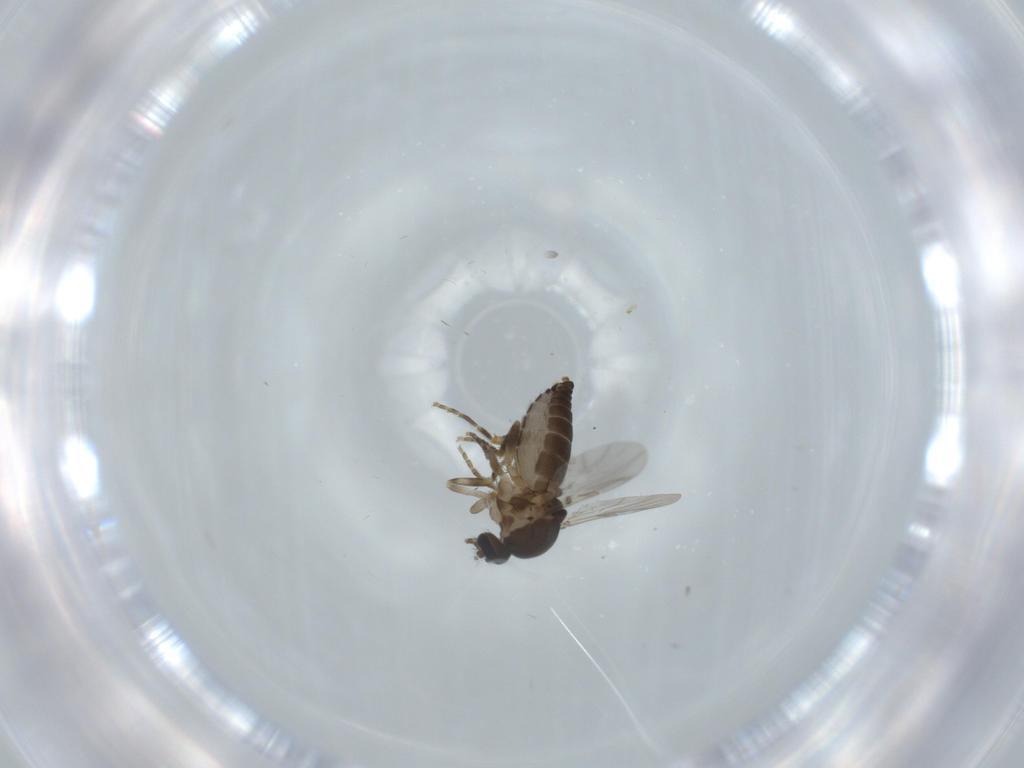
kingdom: Animalia
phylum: Arthropoda
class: Insecta
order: Diptera
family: Ceratopogonidae
